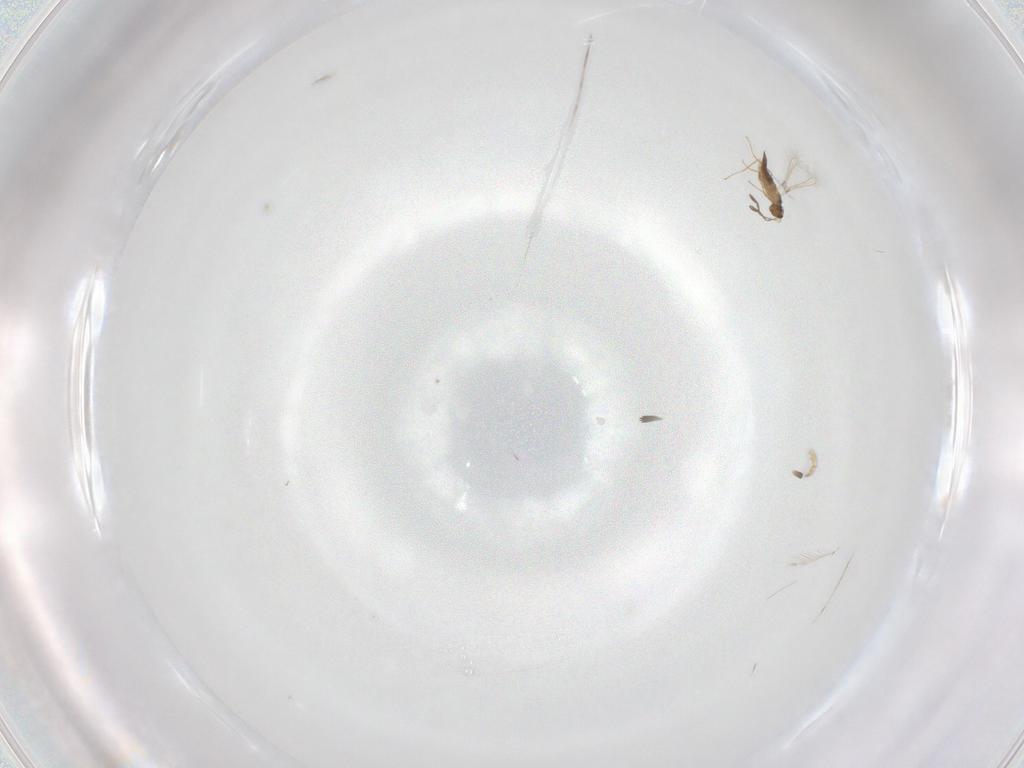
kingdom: Animalia
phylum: Arthropoda
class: Insecta
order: Hymenoptera
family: Mymaridae
